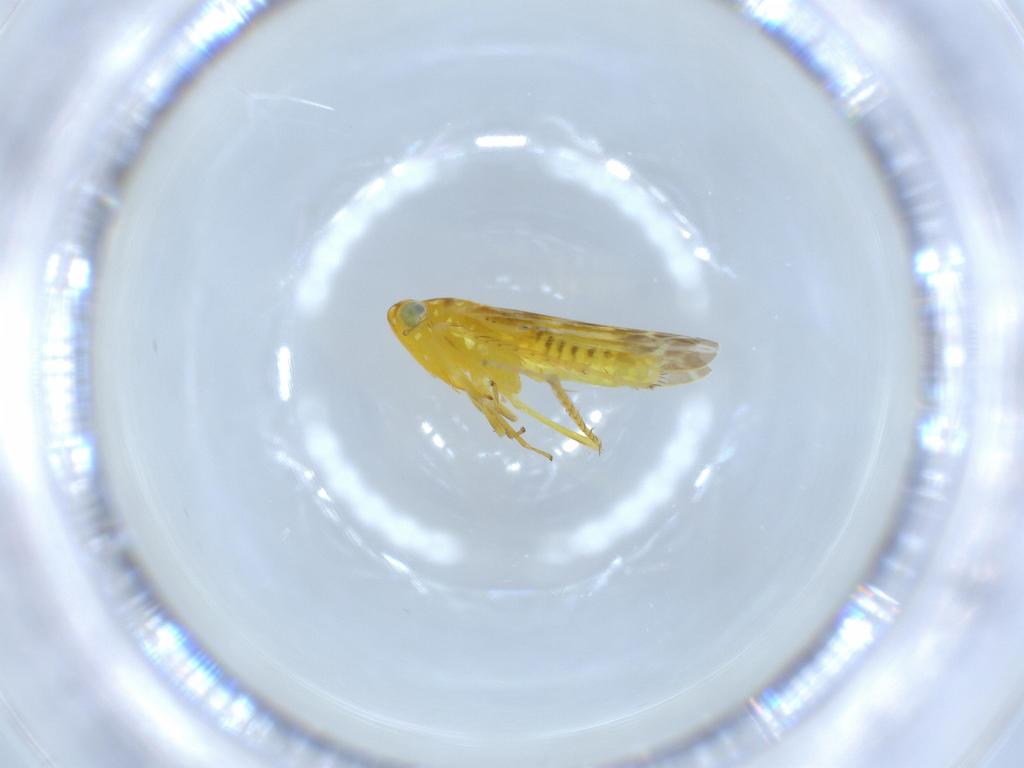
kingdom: Animalia
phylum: Arthropoda
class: Insecta
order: Hemiptera
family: Cicadellidae
